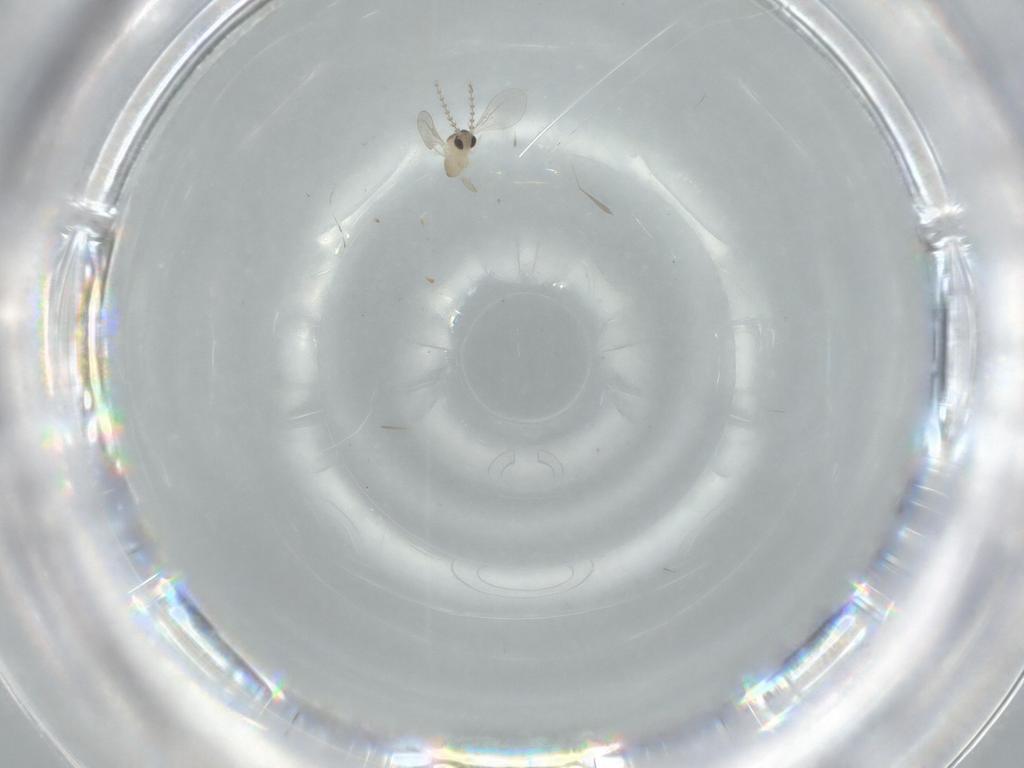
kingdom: Animalia
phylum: Arthropoda
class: Insecta
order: Diptera
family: Cecidomyiidae
